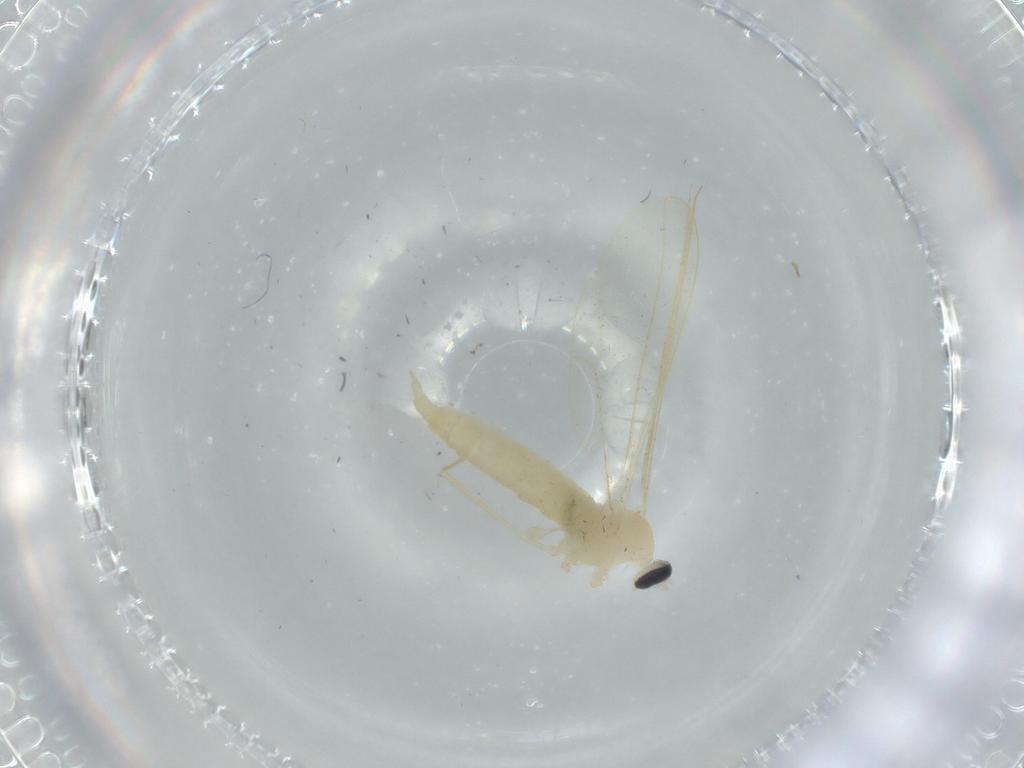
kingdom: Animalia
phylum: Arthropoda
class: Insecta
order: Diptera
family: Cecidomyiidae
